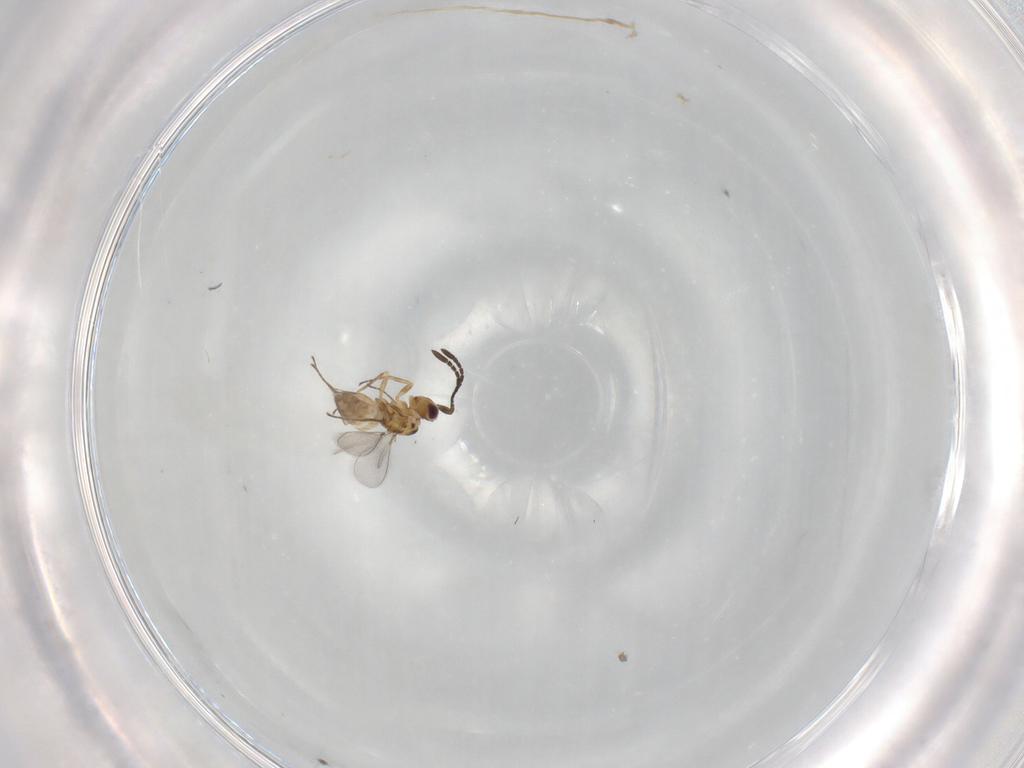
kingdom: Animalia
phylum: Arthropoda
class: Insecta
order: Hymenoptera
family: Mymaridae
